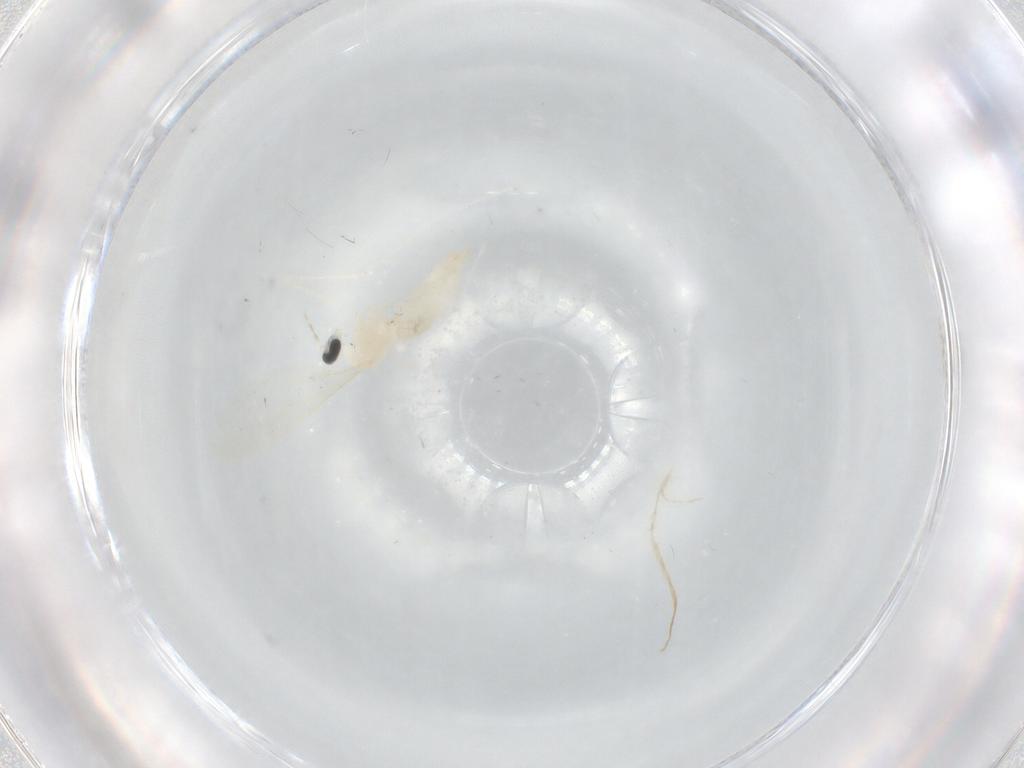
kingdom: Animalia
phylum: Arthropoda
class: Insecta
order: Diptera
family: Cecidomyiidae
